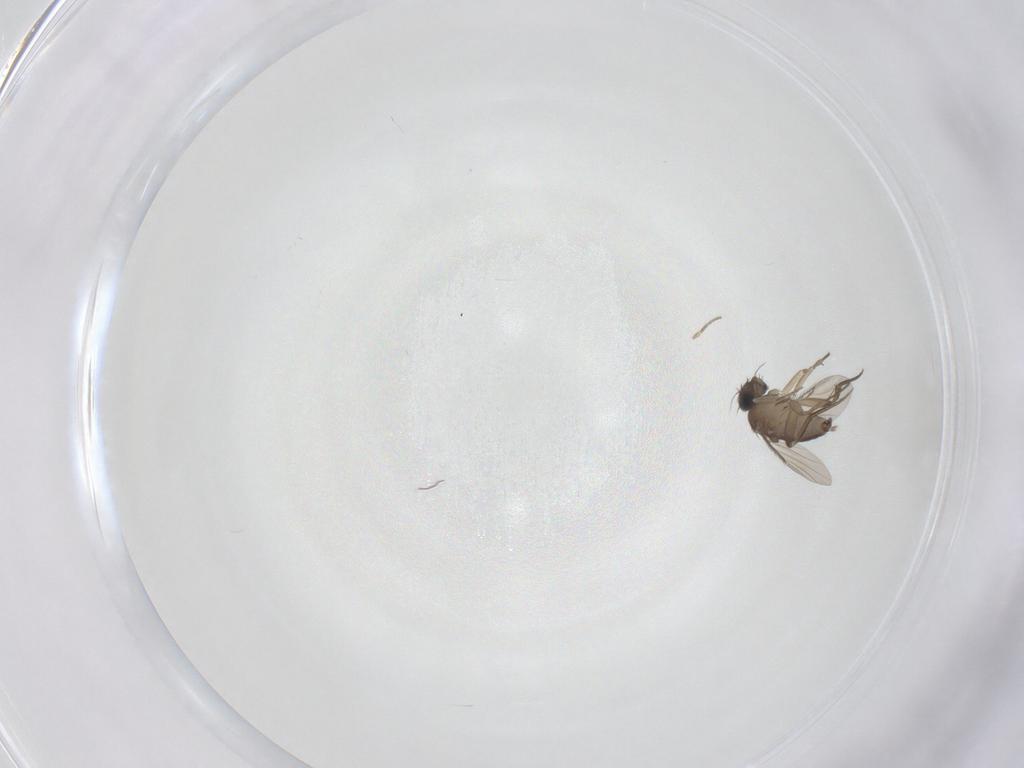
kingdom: Animalia
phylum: Arthropoda
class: Insecta
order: Diptera
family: Phoridae
